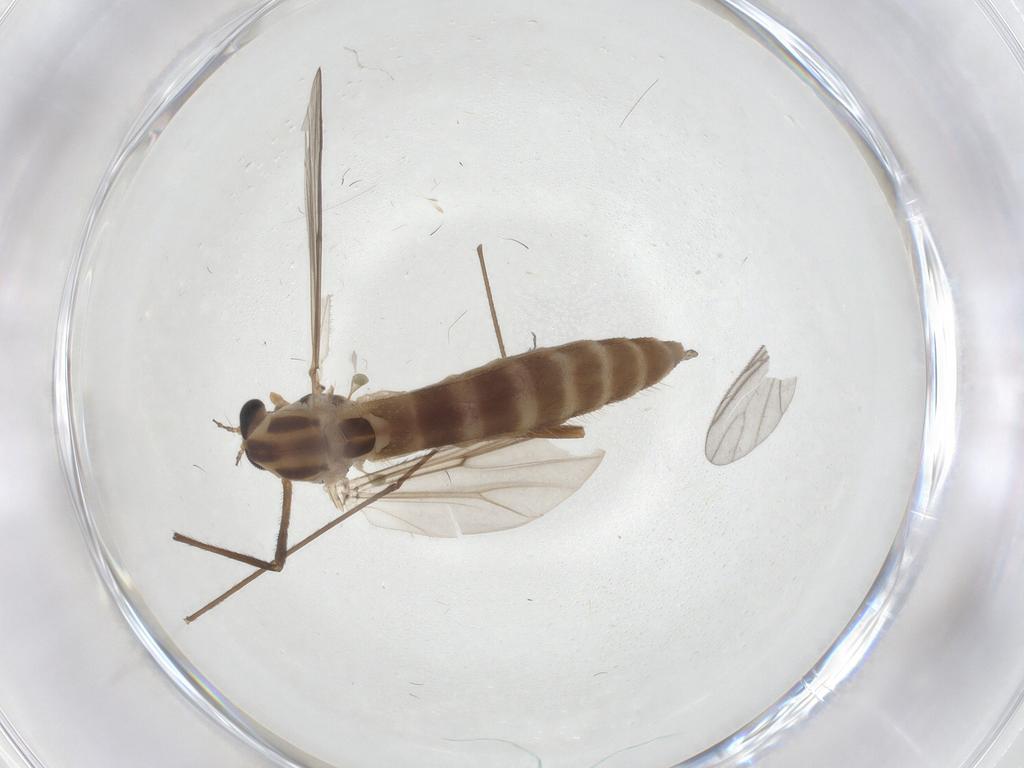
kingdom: Animalia
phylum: Arthropoda
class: Insecta
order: Diptera
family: Chironomidae
